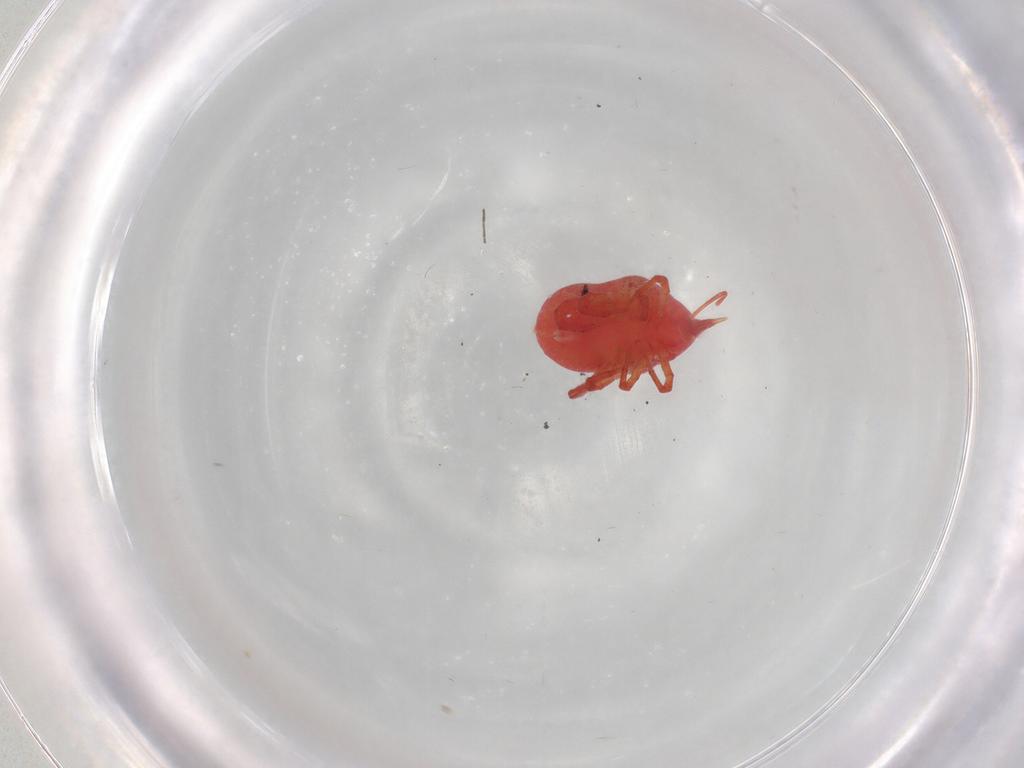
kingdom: Animalia
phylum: Arthropoda
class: Arachnida
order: Trombidiformes
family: Bdellidae
